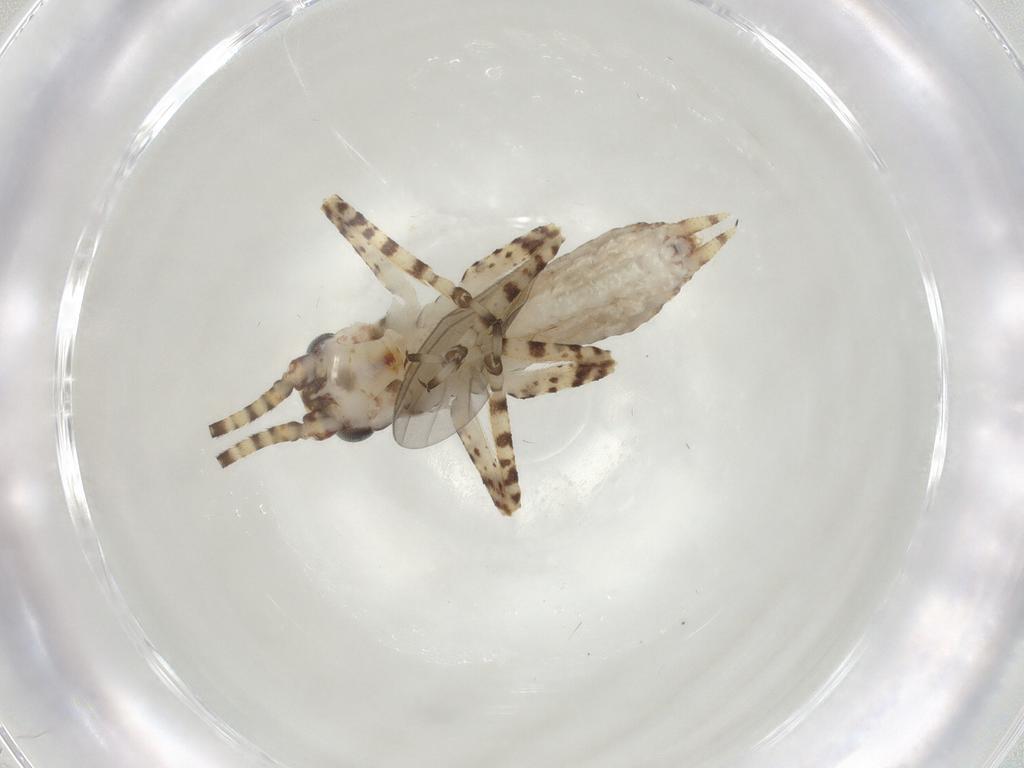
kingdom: Animalia
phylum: Arthropoda
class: Insecta
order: Orthoptera
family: Gryllidae
